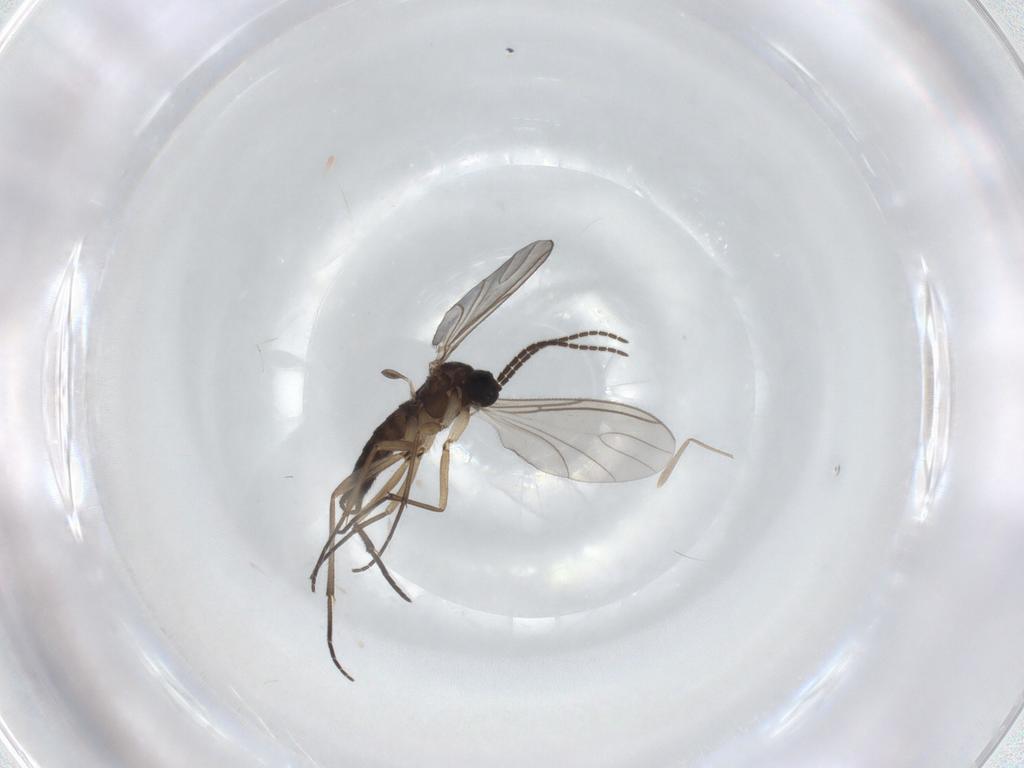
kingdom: Animalia
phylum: Arthropoda
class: Insecta
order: Diptera
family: Sciaridae
